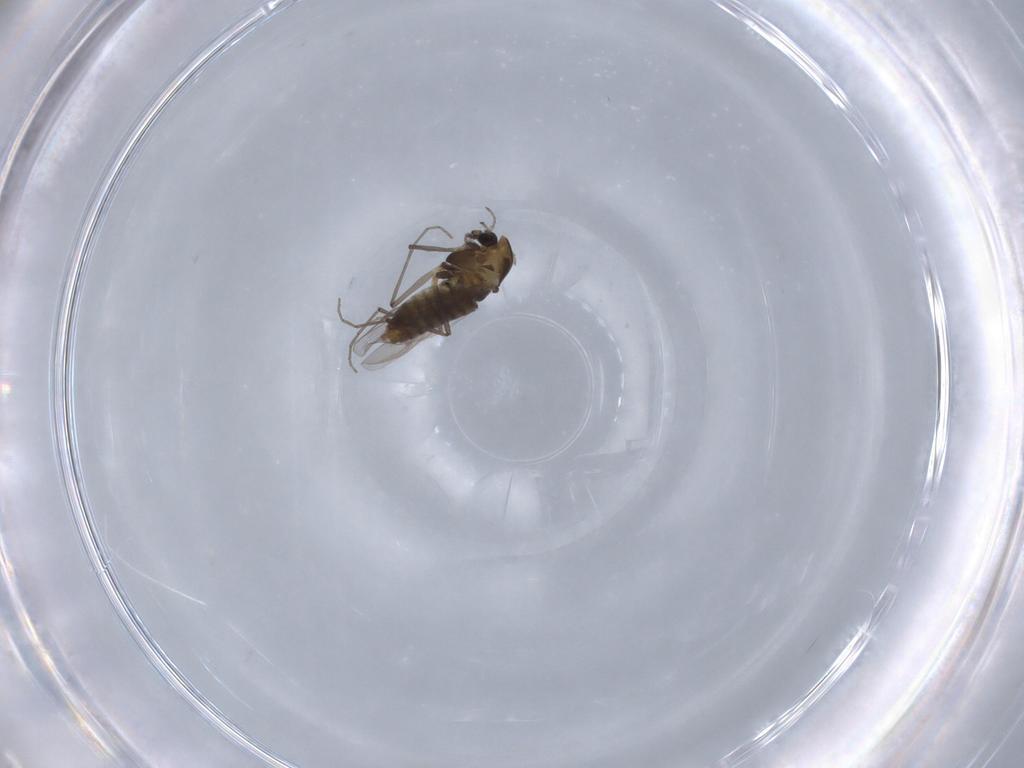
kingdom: Animalia
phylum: Arthropoda
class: Insecta
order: Diptera
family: Chironomidae
